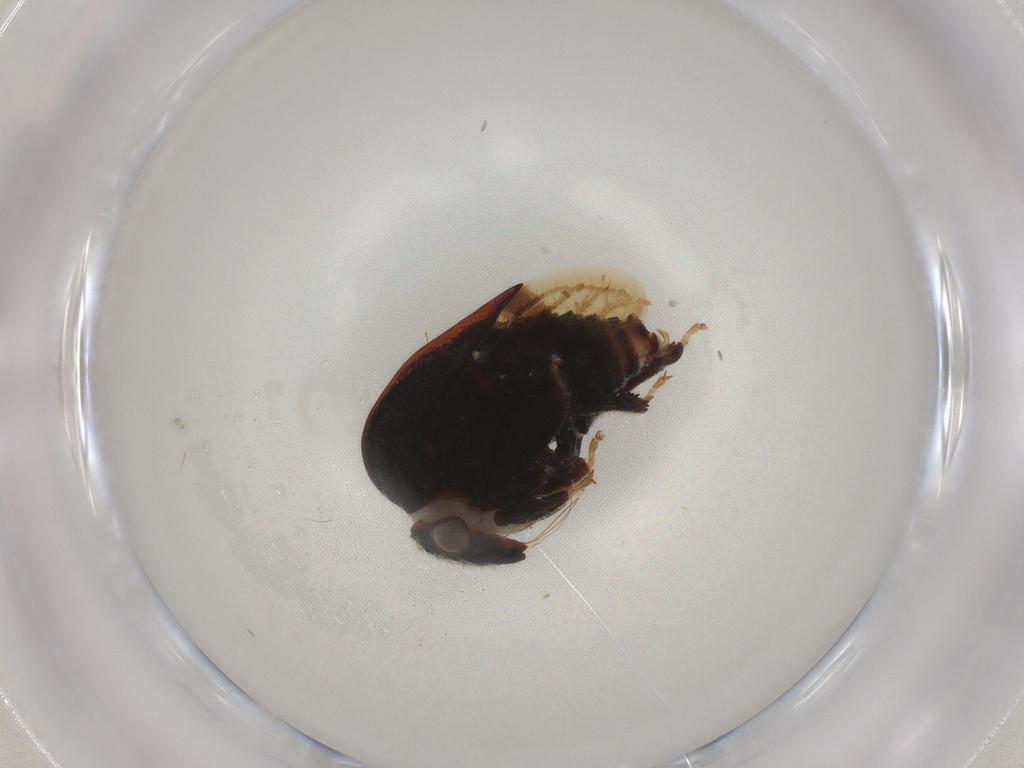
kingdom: Animalia
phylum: Arthropoda
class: Insecta
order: Hemiptera
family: Membracidae
